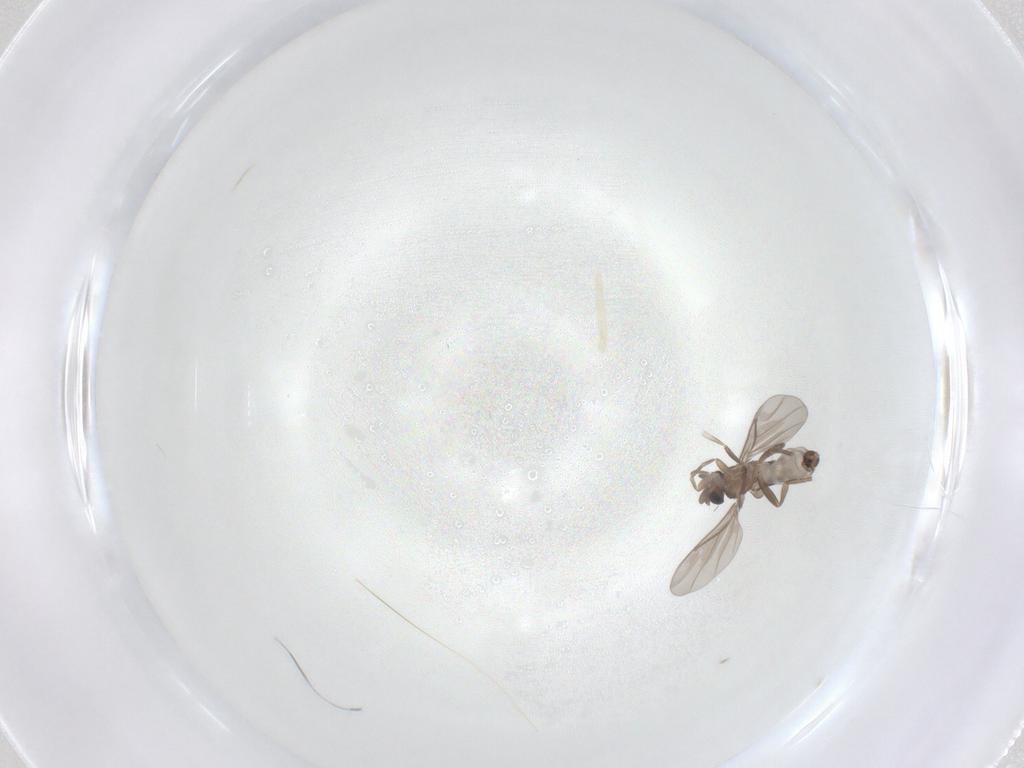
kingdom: Animalia
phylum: Arthropoda
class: Insecta
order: Diptera
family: Psychodidae
